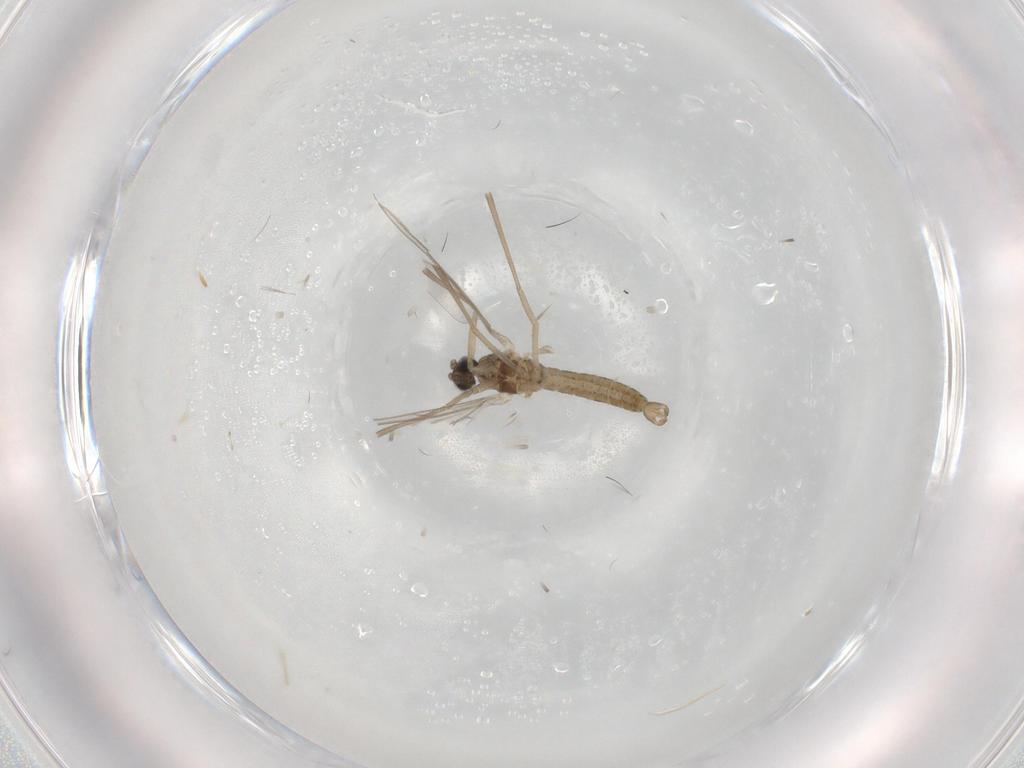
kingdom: Animalia
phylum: Arthropoda
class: Insecta
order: Diptera
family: Cecidomyiidae
